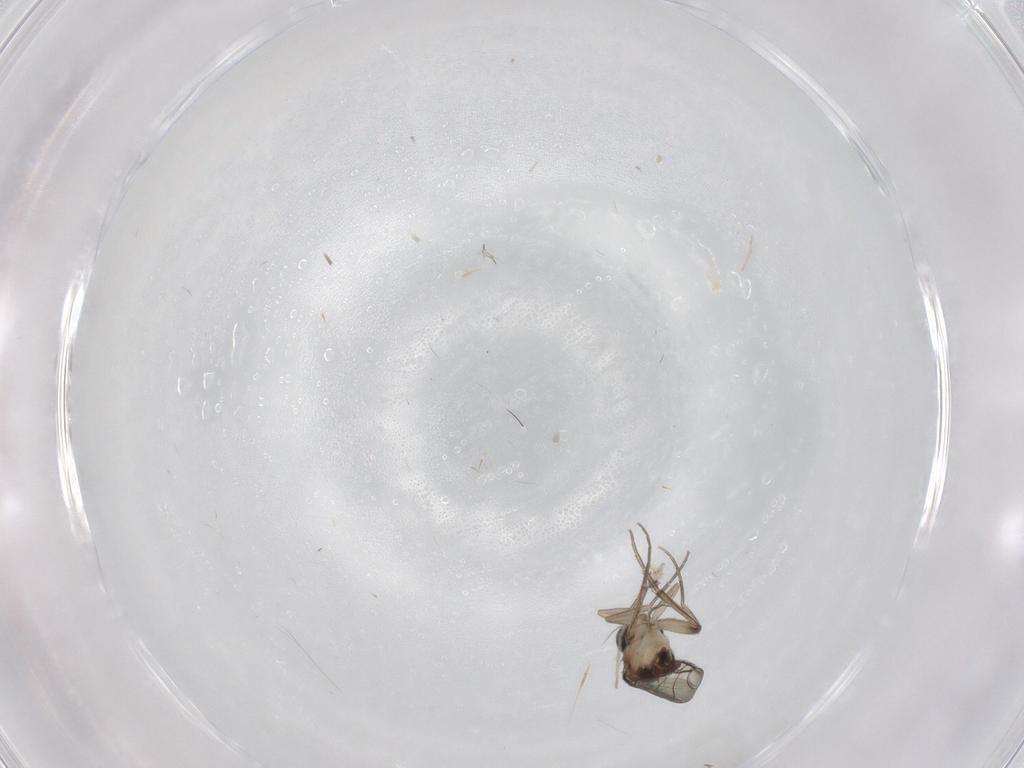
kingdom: Animalia
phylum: Arthropoda
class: Insecta
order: Diptera
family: Phoridae
